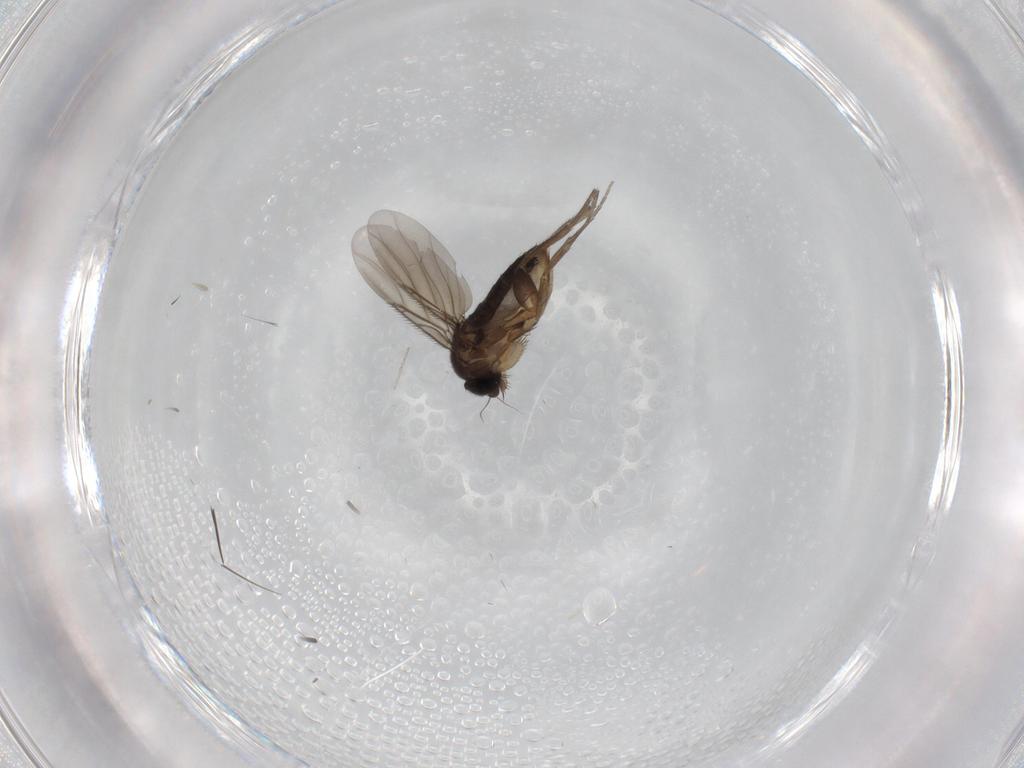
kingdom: Animalia
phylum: Arthropoda
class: Insecta
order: Diptera
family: Phoridae
